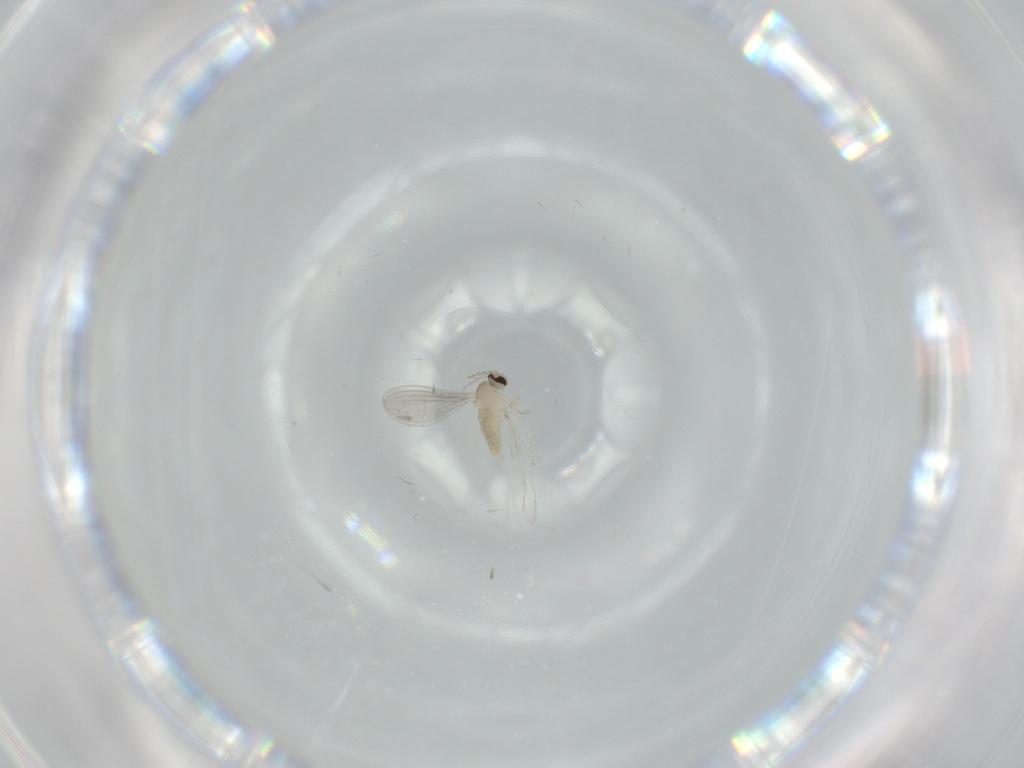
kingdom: Animalia
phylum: Arthropoda
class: Insecta
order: Diptera
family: Cecidomyiidae
